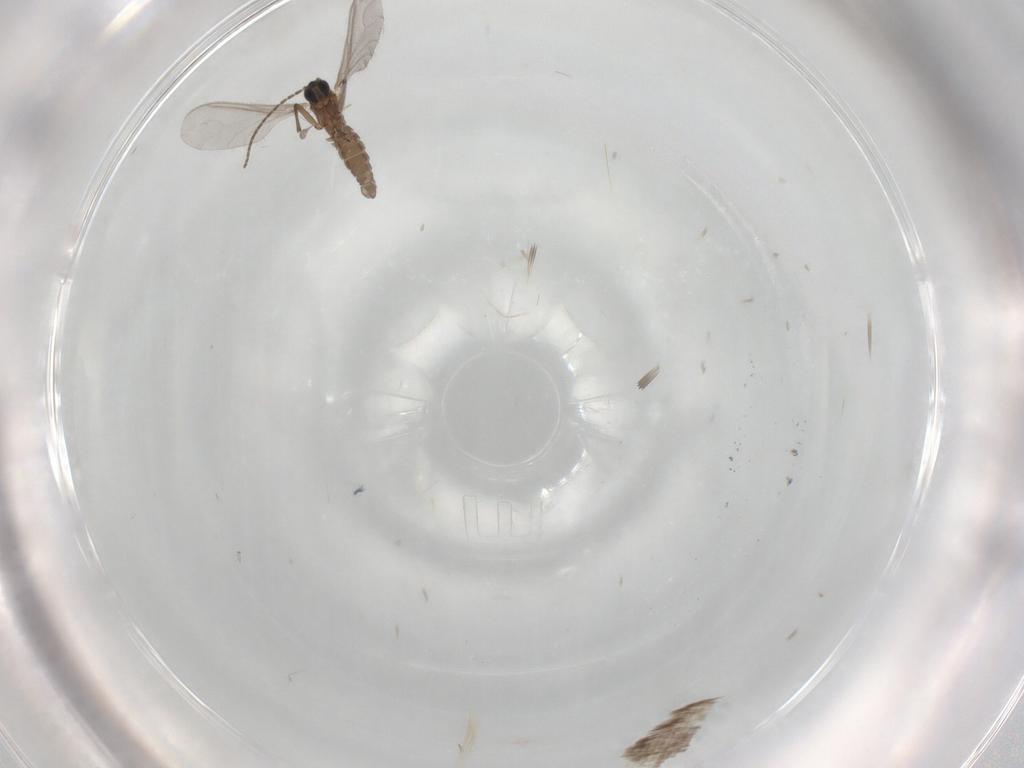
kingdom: Animalia
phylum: Arthropoda
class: Insecta
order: Diptera
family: Sciaridae
